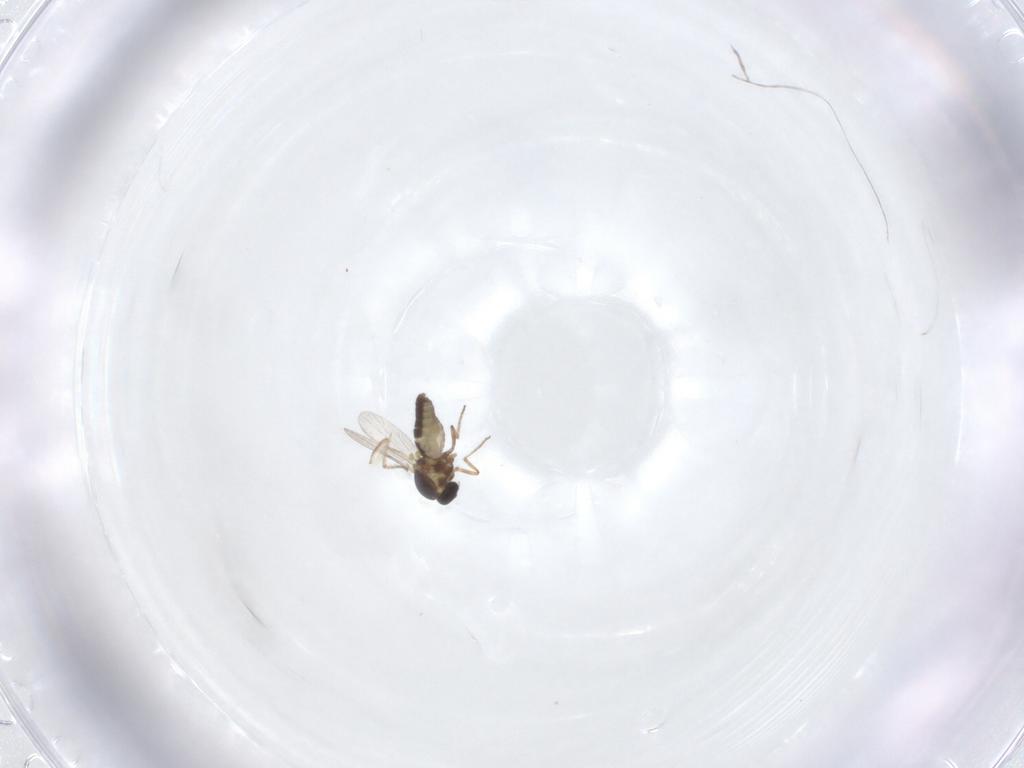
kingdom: Animalia
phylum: Arthropoda
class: Insecta
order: Diptera
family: Ceratopogonidae
